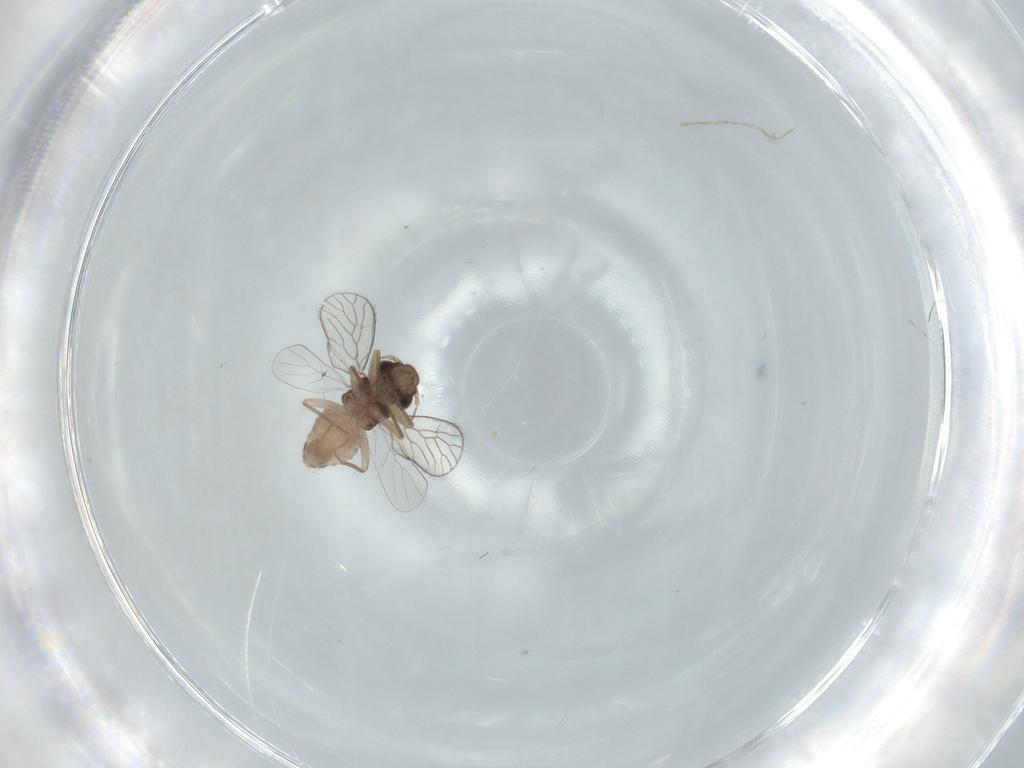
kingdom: Animalia
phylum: Arthropoda
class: Insecta
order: Psocodea
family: Psoquillidae
